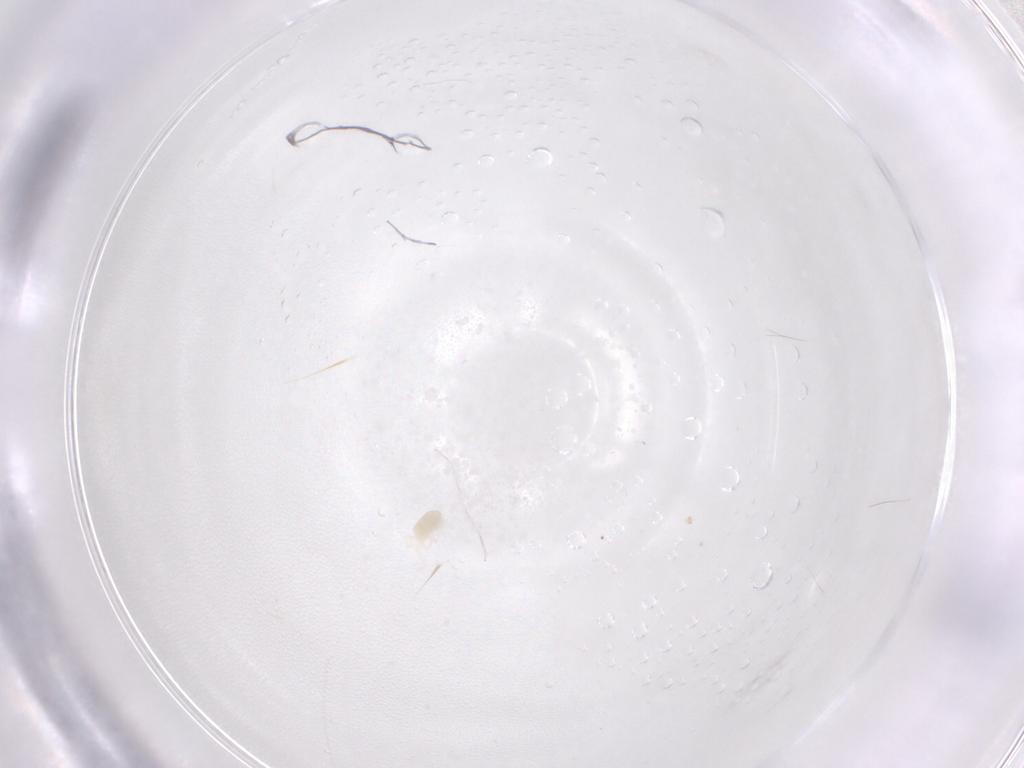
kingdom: Animalia
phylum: Arthropoda
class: Arachnida
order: Trombidiformes
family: Eupodidae
